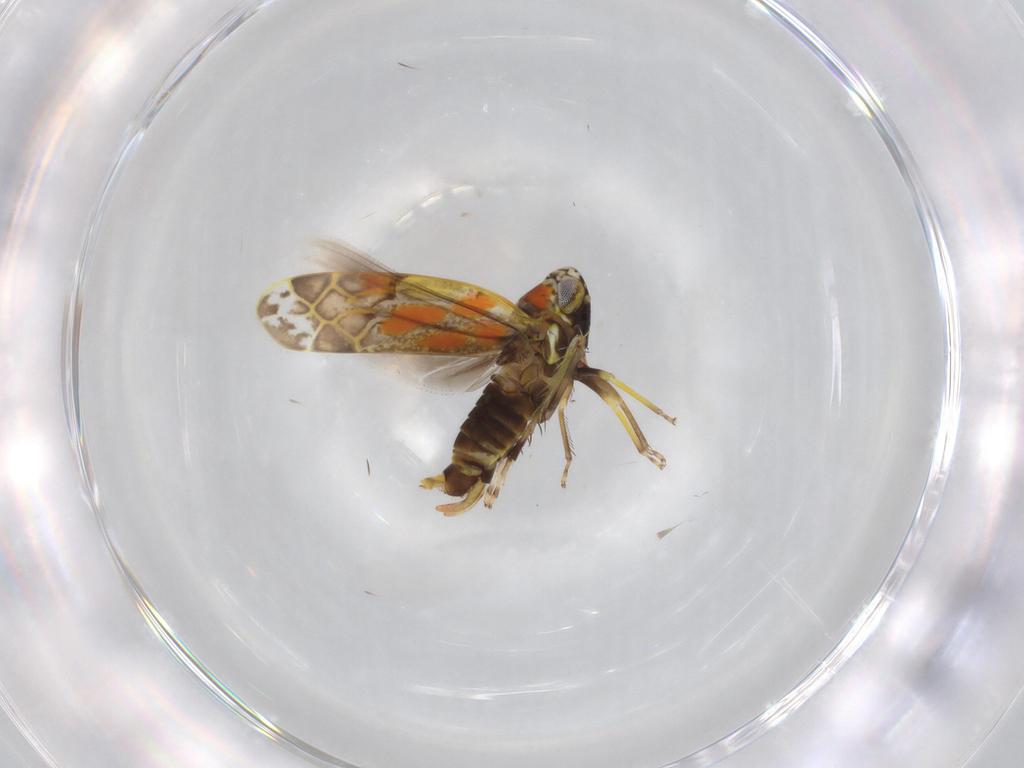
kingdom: Animalia
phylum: Arthropoda
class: Insecta
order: Hemiptera
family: Cicadellidae
